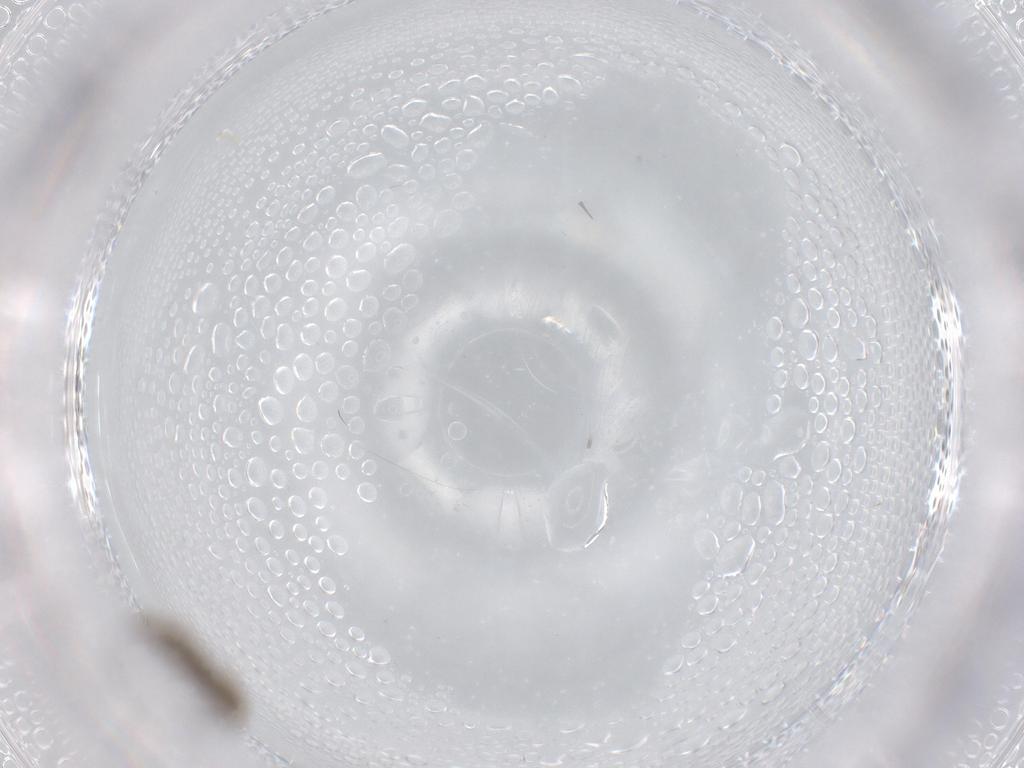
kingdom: Animalia
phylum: Arthropoda
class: Insecta
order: Diptera
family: Chironomidae
